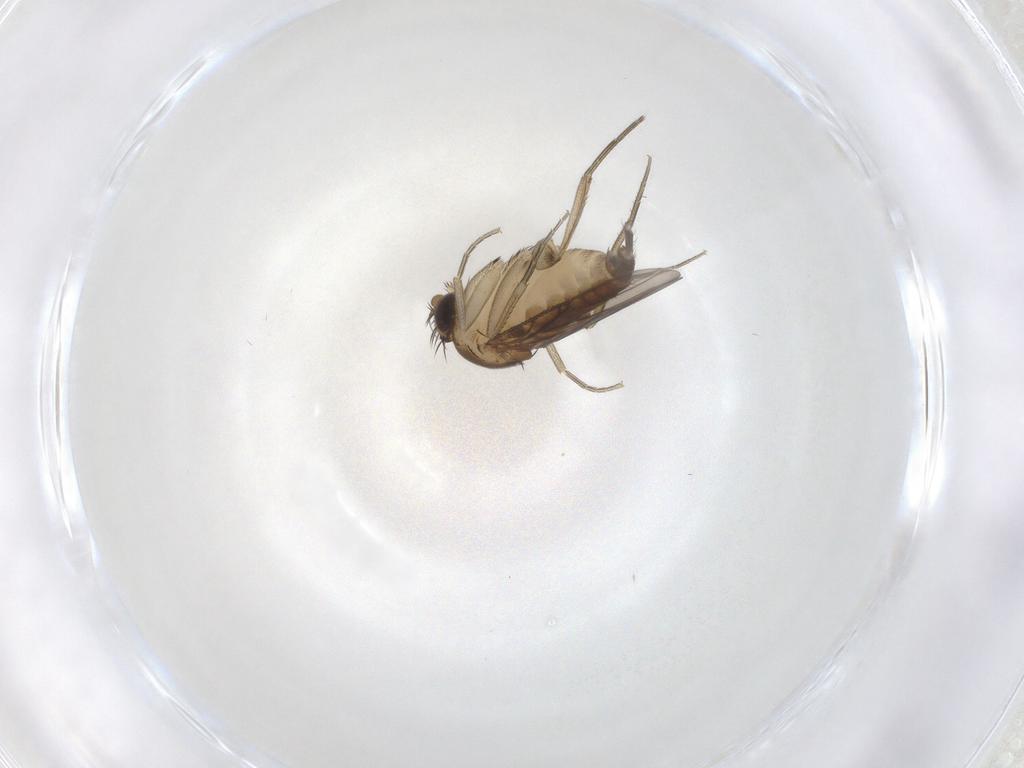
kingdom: Animalia
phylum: Arthropoda
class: Insecta
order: Diptera
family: Phoridae
